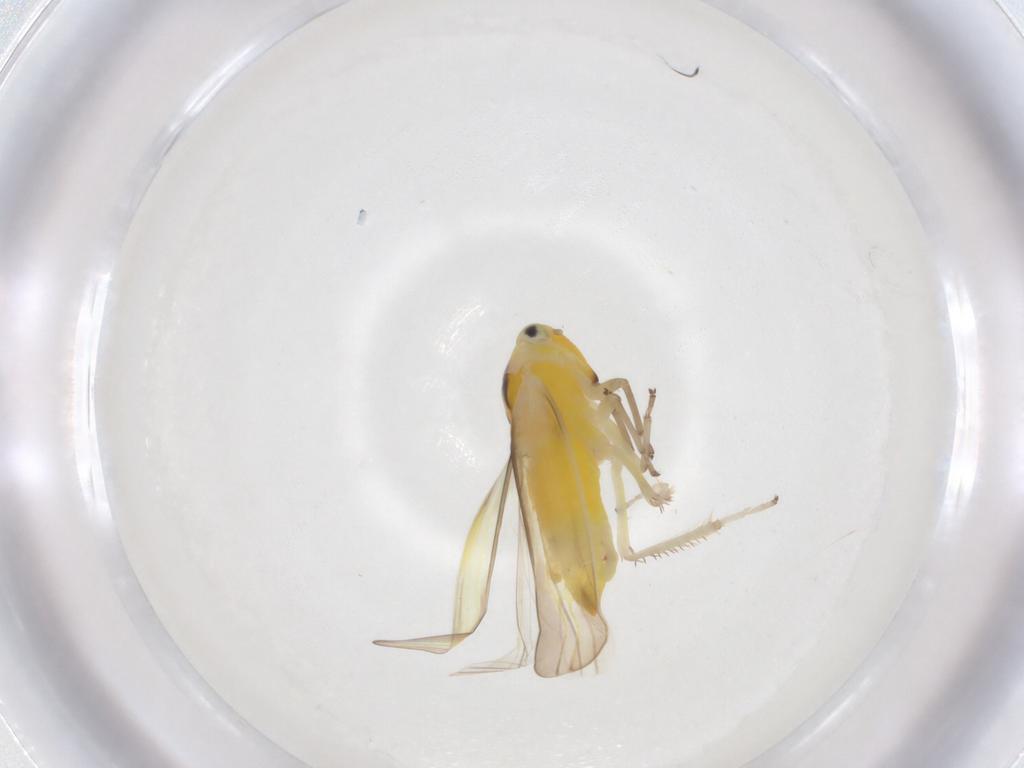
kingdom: Animalia
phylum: Arthropoda
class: Insecta
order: Hemiptera
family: Cicadellidae
